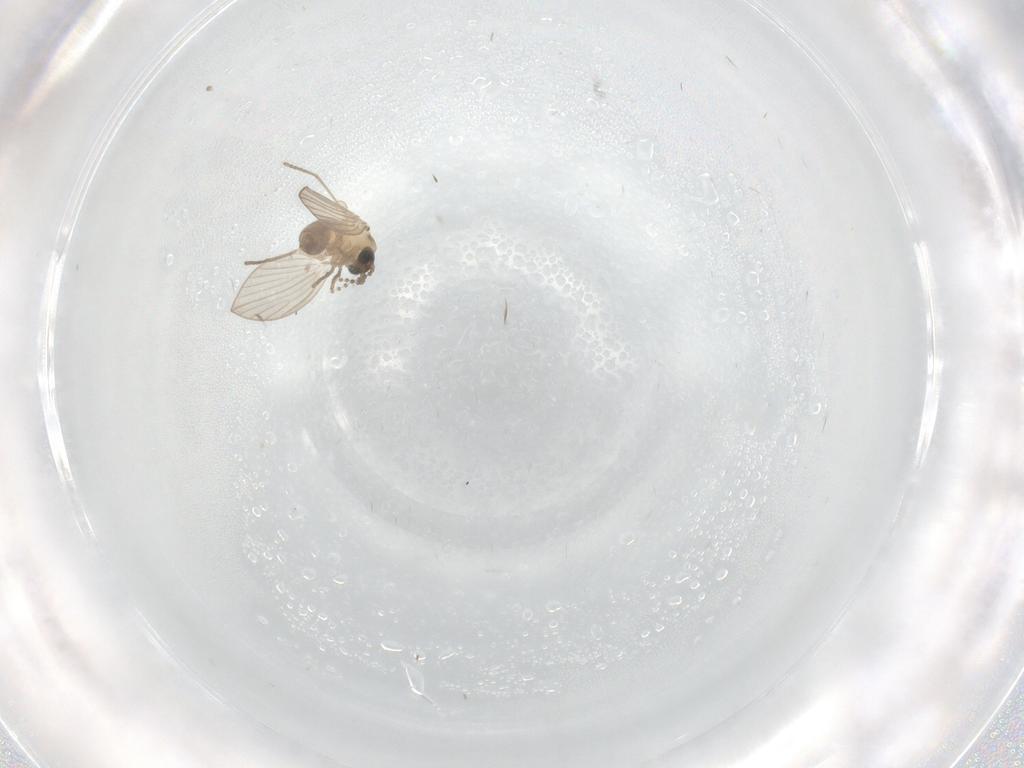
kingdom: Animalia
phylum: Arthropoda
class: Insecta
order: Diptera
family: Psychodidae
